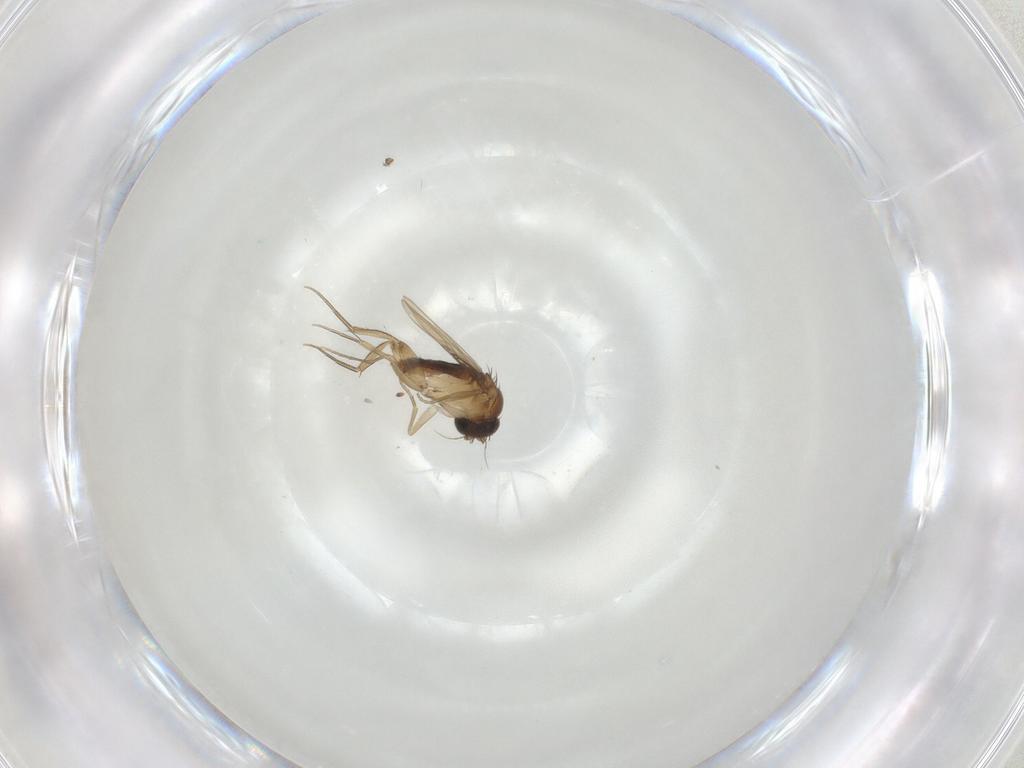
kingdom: Animalia
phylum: Arthropoda
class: Insecta
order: Diptera
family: Phoridae
